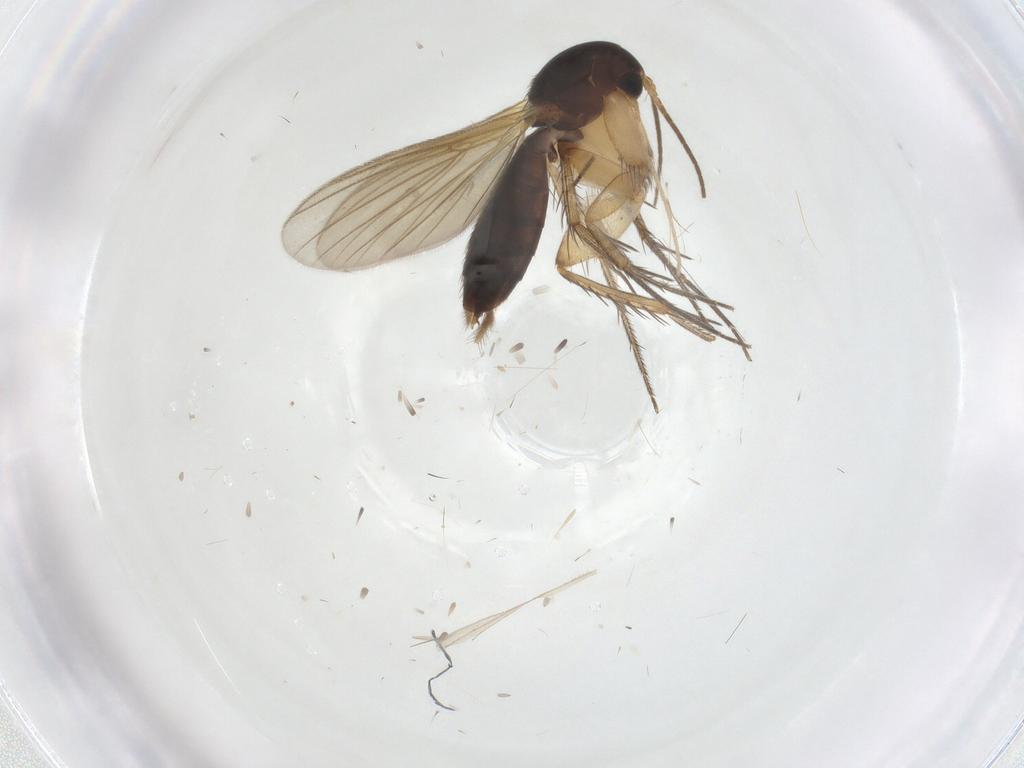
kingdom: Animalia
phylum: Arthropoda
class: Insecta
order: Diptera
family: Mycetophilidae
